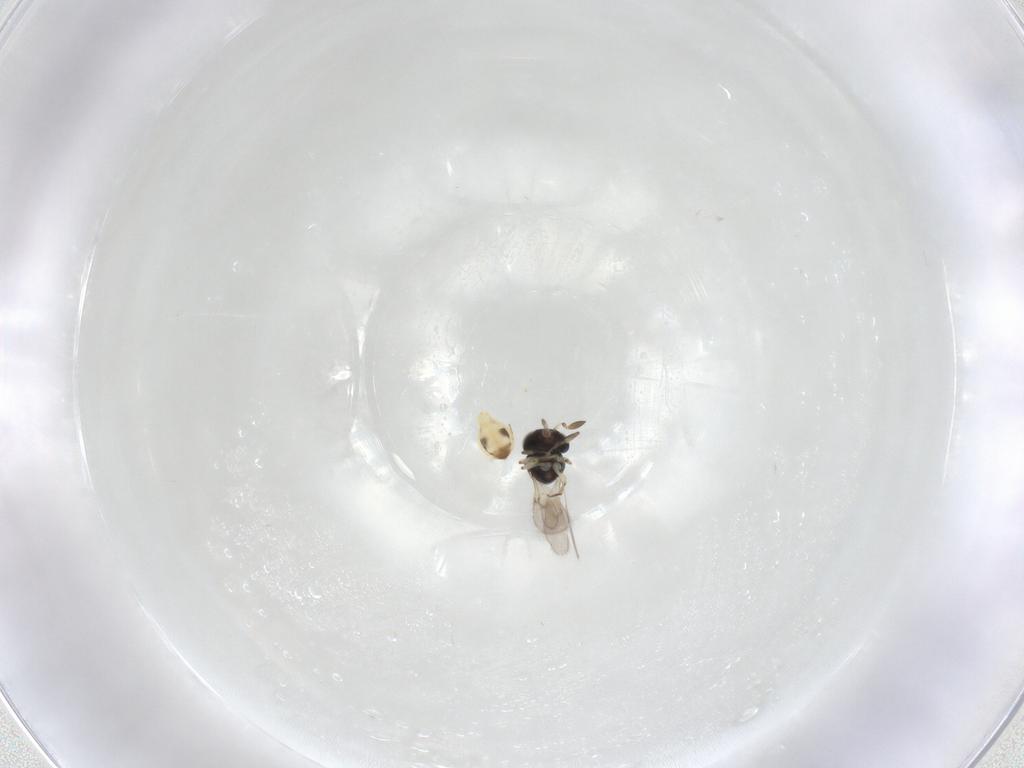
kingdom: Animalia
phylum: Arthropoda
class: Insecta
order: Hymenoptera
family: Scelionidae
